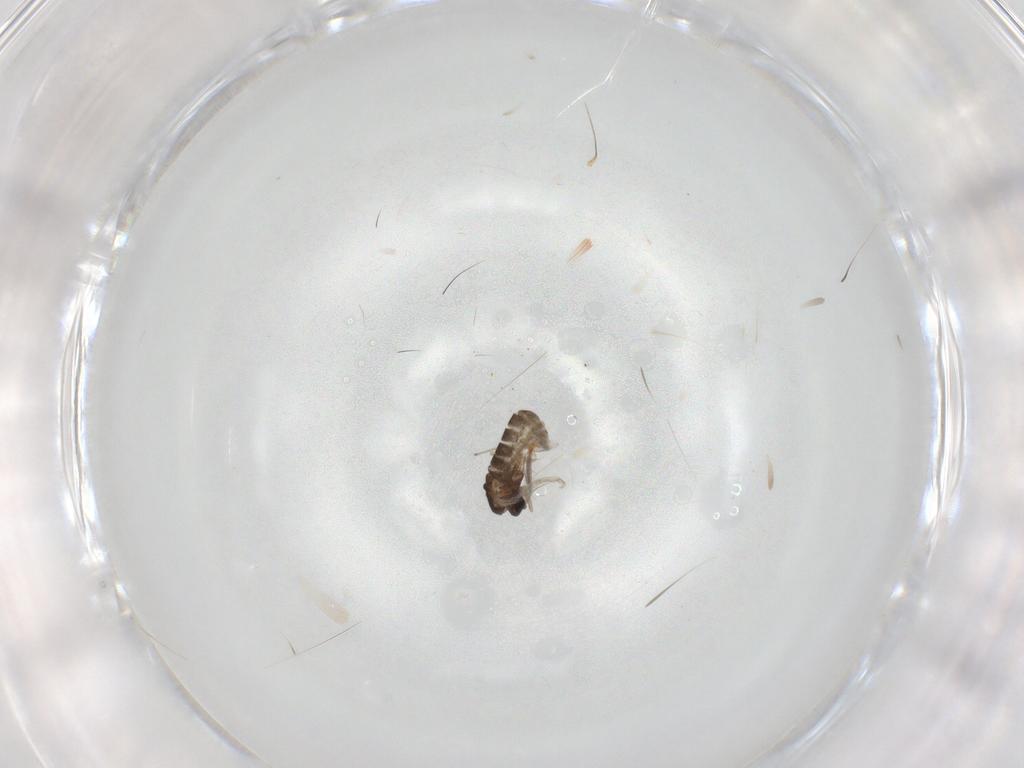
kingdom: Animalia
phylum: Arthropoda
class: Insecta
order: Diptera
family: Hybotidae
